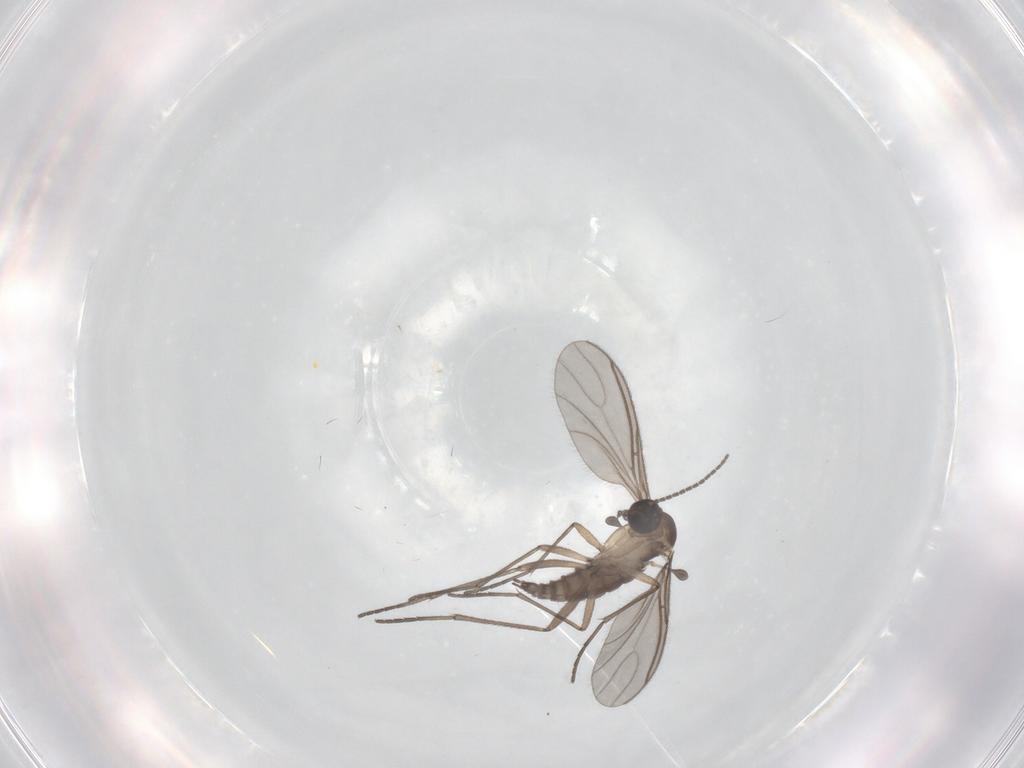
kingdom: Animalia
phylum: Arthropoda
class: Insecta
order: Diptera
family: Sciaridae
